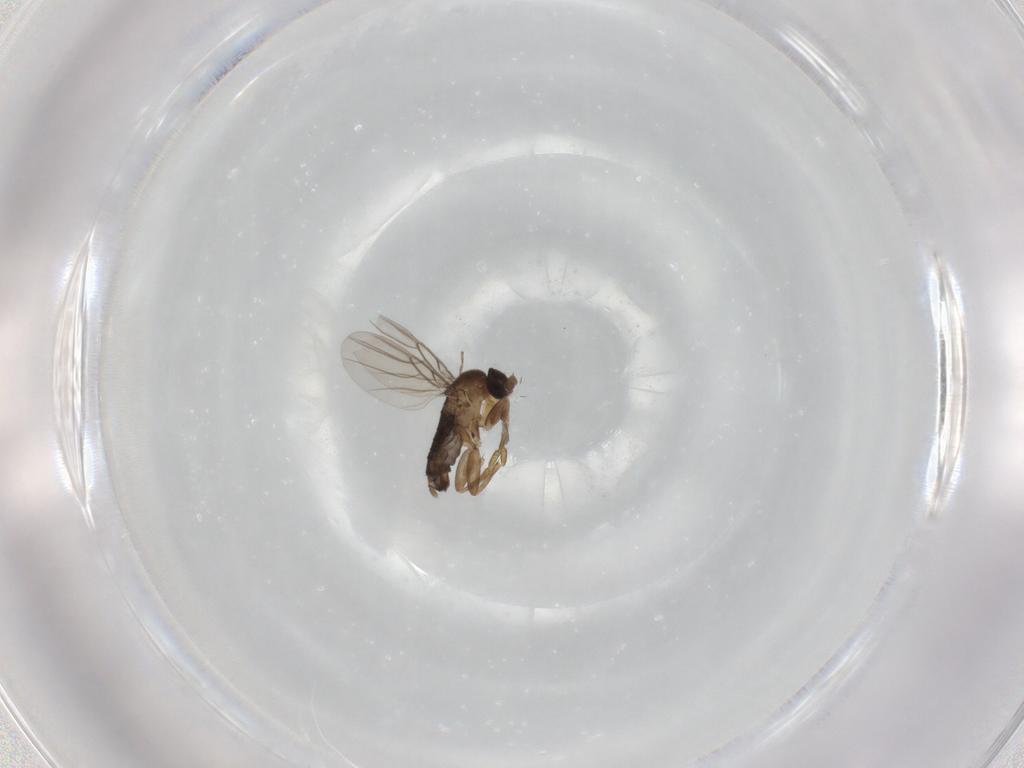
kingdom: Animalia
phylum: Arthropoda
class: Insecta
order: Diptera
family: Phoridae
